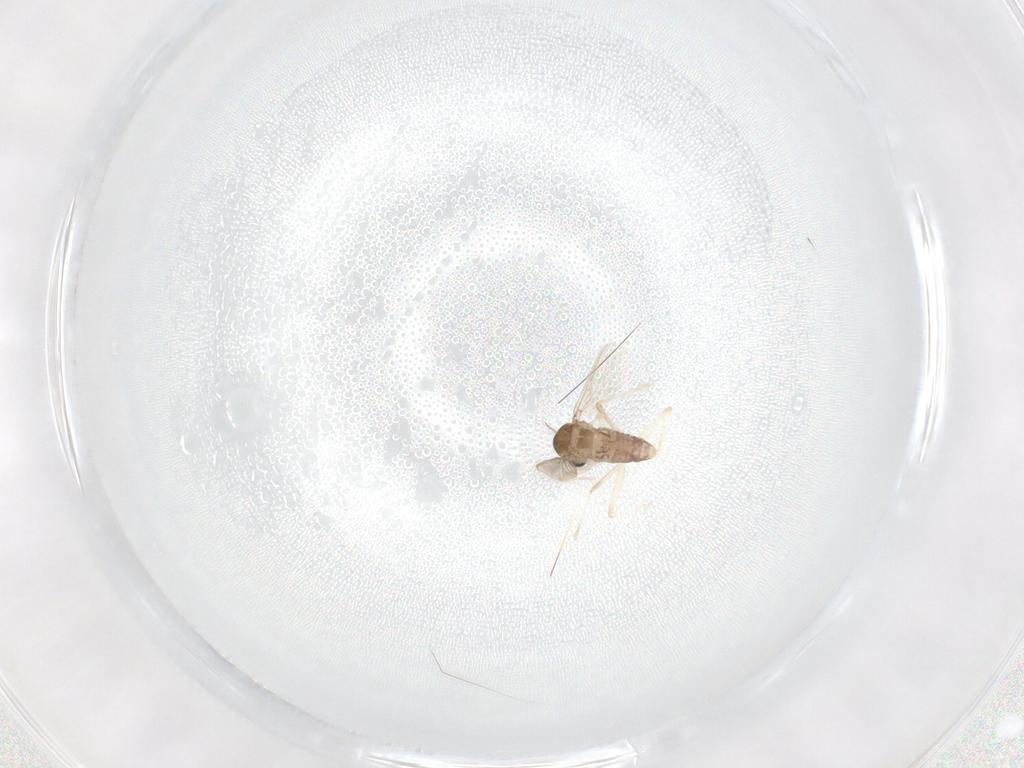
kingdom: Animalia
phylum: Arthropoda
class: Insecta
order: Diptera
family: Chironomidae
